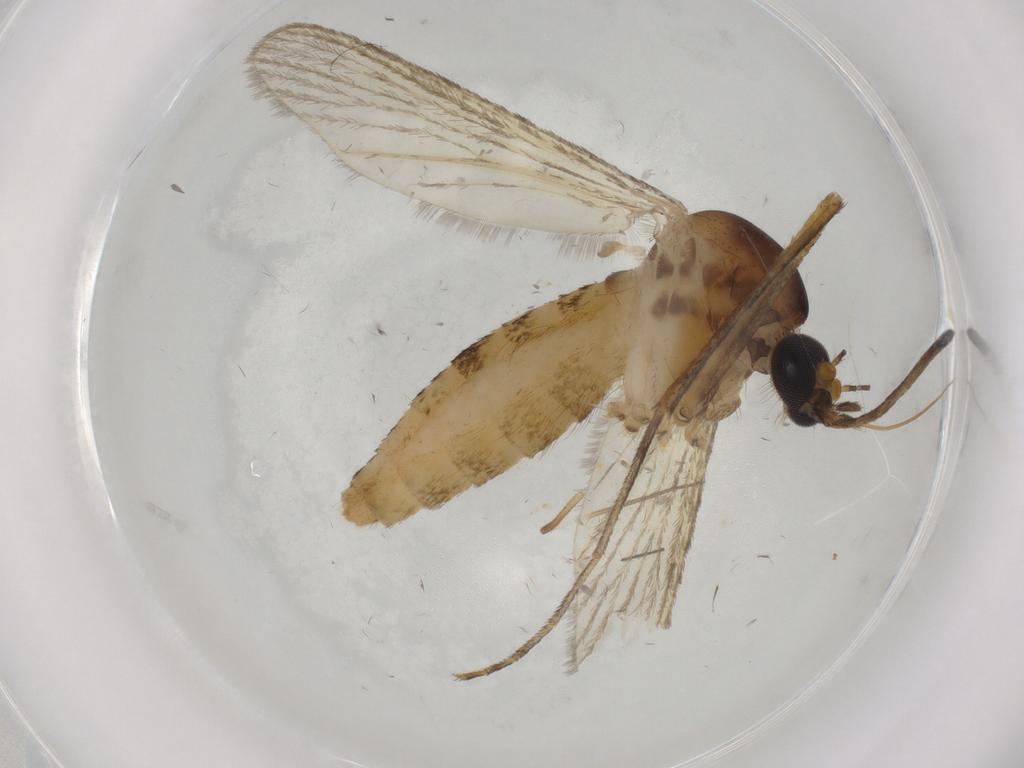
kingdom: Animalia
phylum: Arthropoda
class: Insecta
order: Diptera
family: Culicidae
